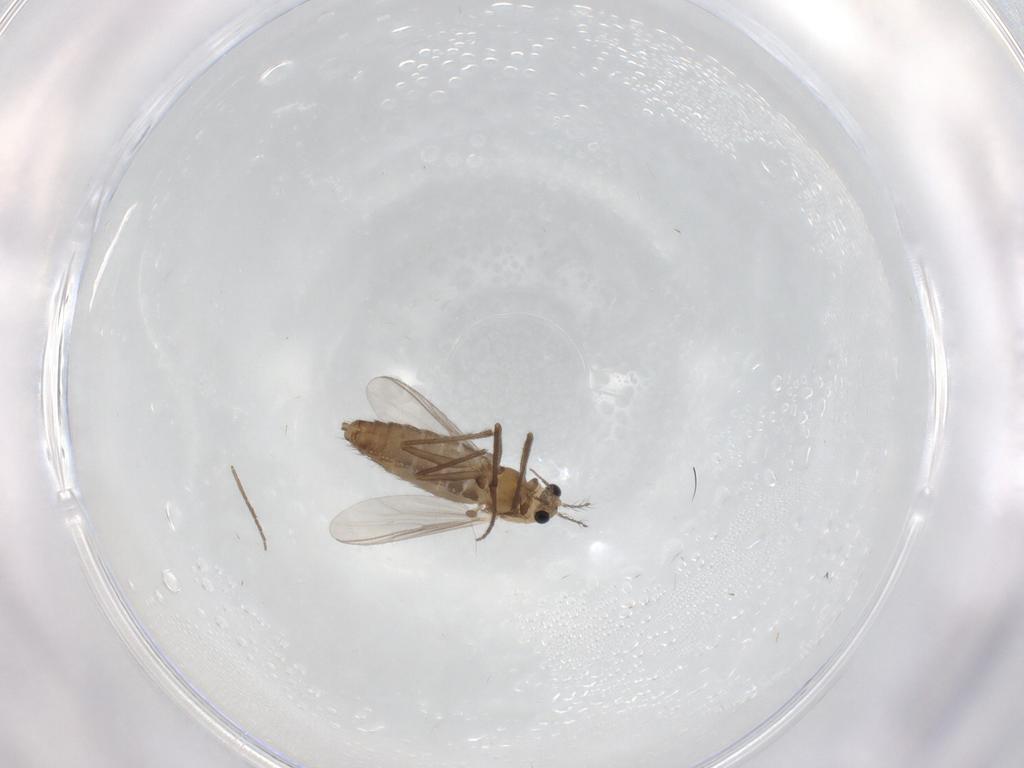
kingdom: Animalia
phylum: Arthropoda
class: Insecta
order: Diptera
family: Chironomidae
